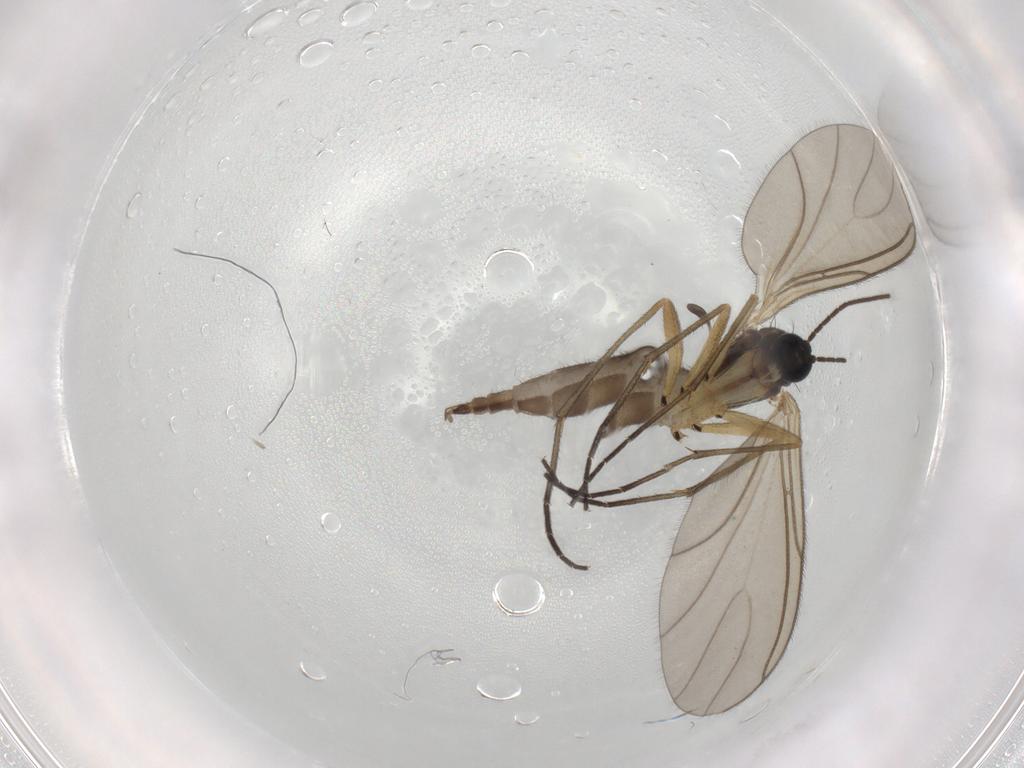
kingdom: Animalia
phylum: Arthropoda
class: Insecta
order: Diptera
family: Sciaridae
